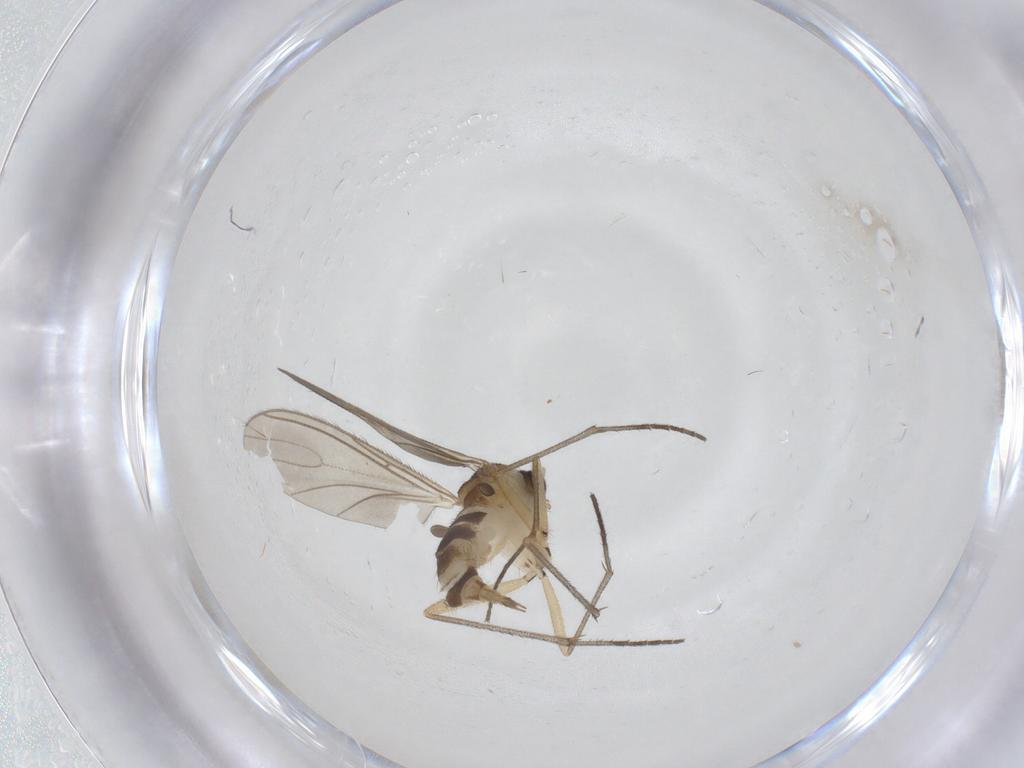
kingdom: Animalia
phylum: Arthropoda
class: Insecta
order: Diptera
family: Sciaridae
